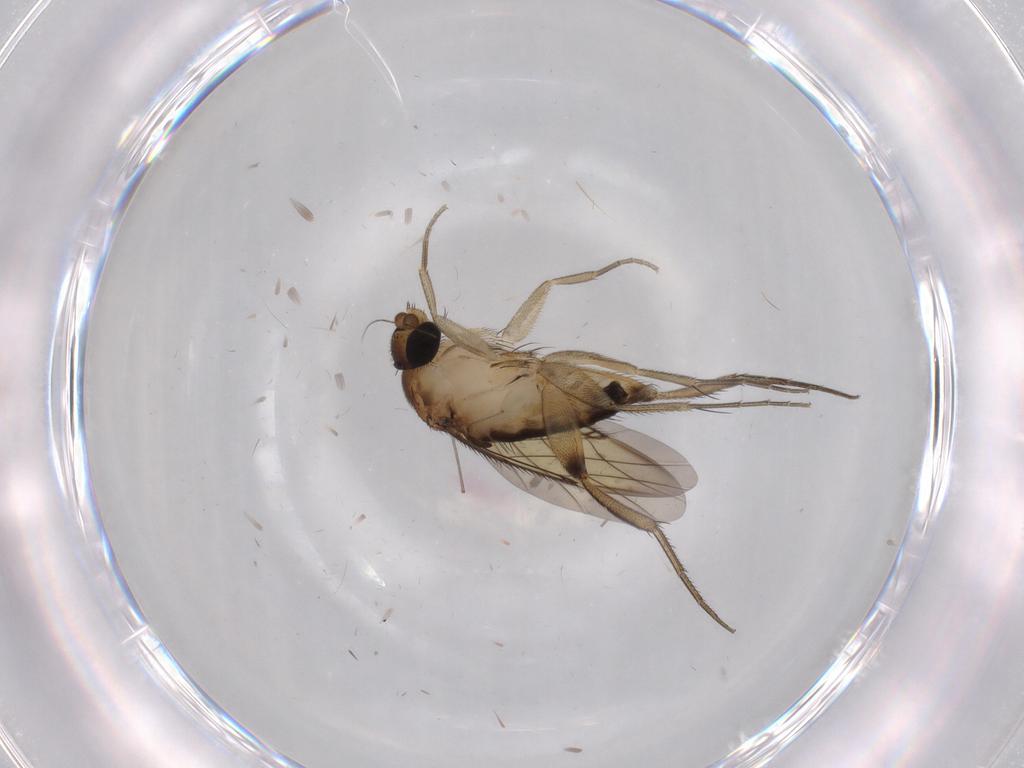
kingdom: Animalia
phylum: Arthropoda
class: Insecta
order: Diptera
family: Phoridae
